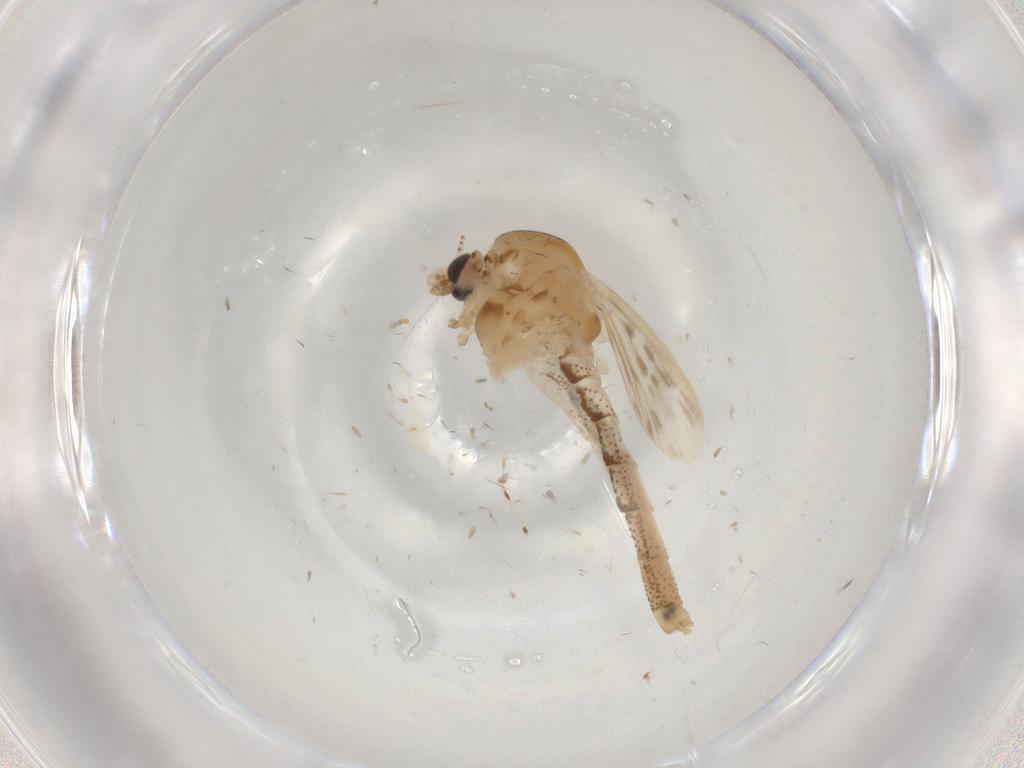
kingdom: Animalia
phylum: Arthropoda
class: Insecta
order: Diptera
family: Chaoboridae
